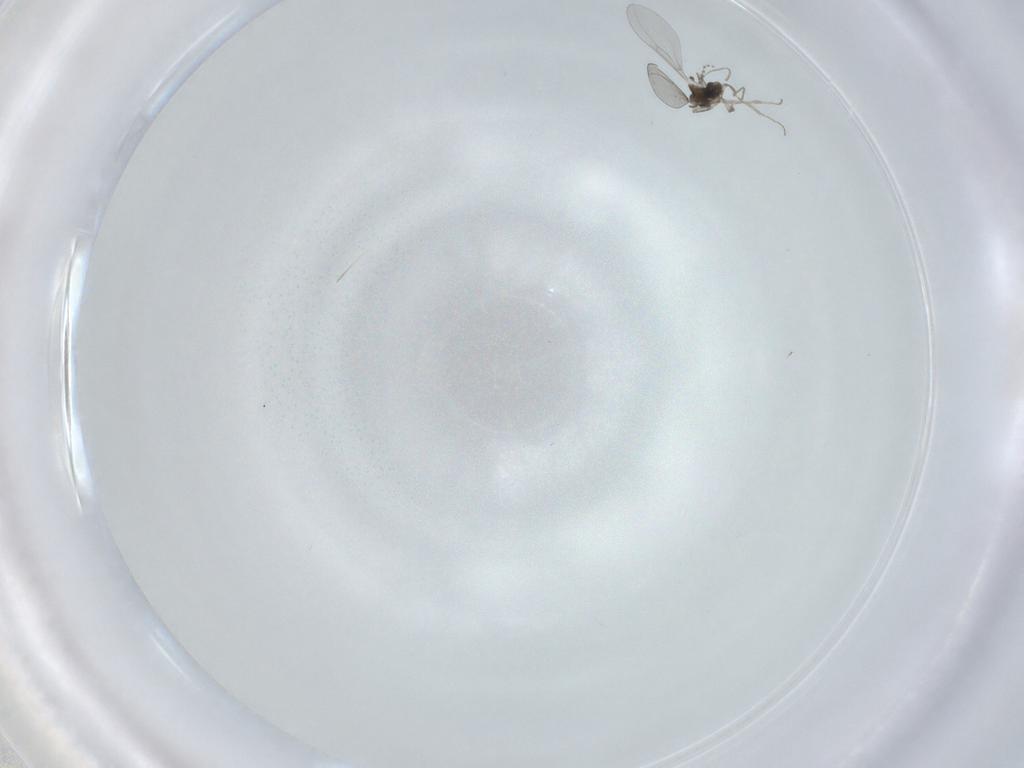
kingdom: Animalia
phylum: Arthropoda
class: Insecta
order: Diptera
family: Cecidomyiidae
